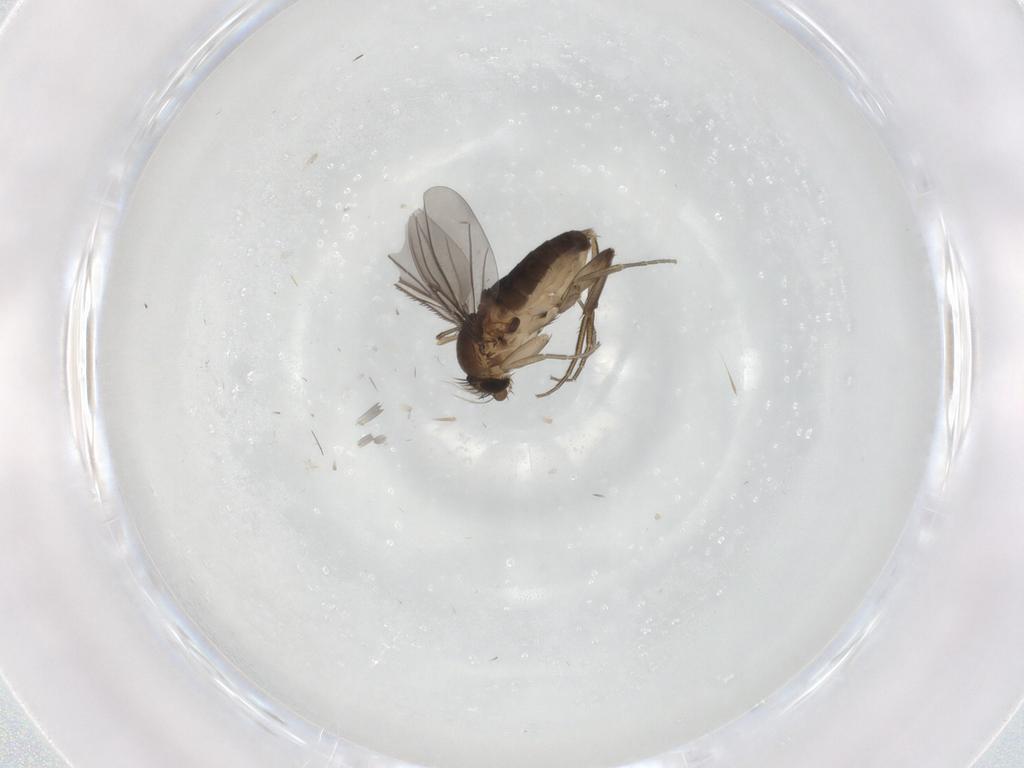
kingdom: Animalia
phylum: Arthropoda
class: Insecta
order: Diptera
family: Phoridae
